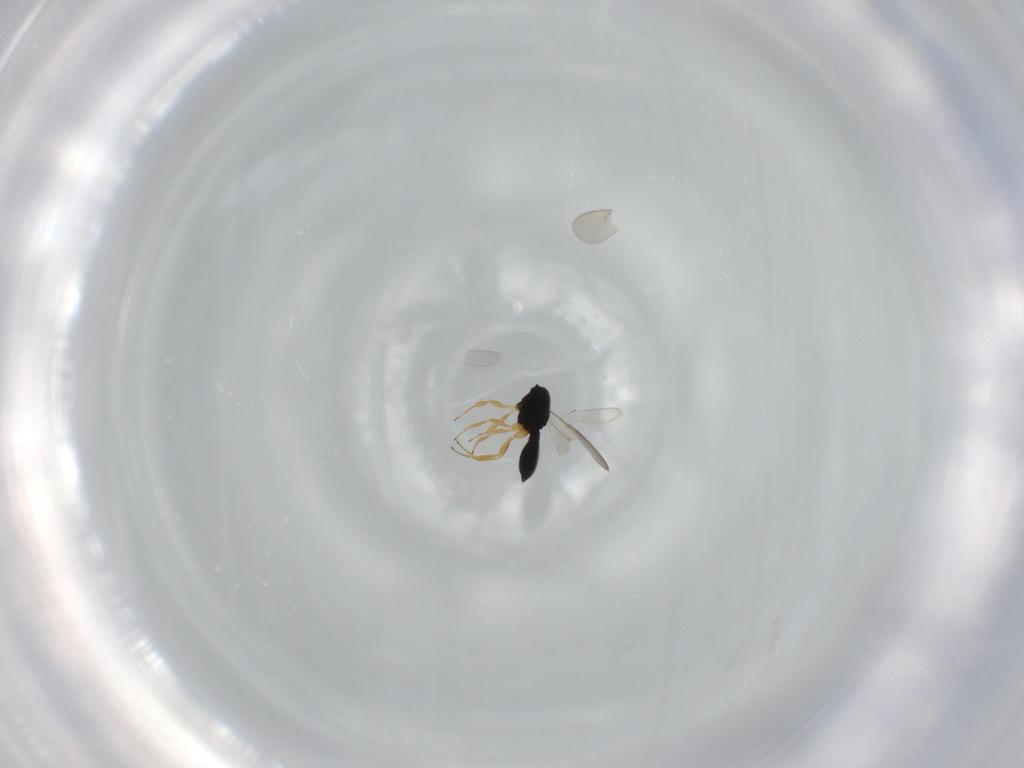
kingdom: Animalia
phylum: Arthropoda
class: Insecta
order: Hymenoptera
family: Scelionidae
